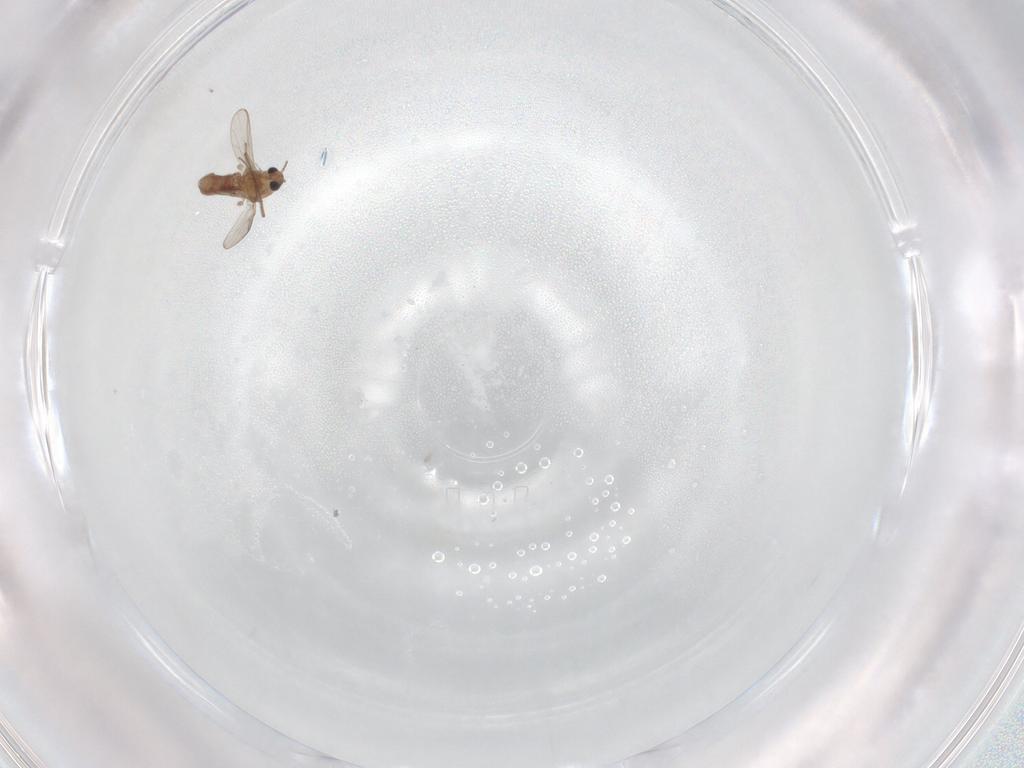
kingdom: Animalia
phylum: Arthropoda
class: Insecta
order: Diptera
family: Chironomidae
